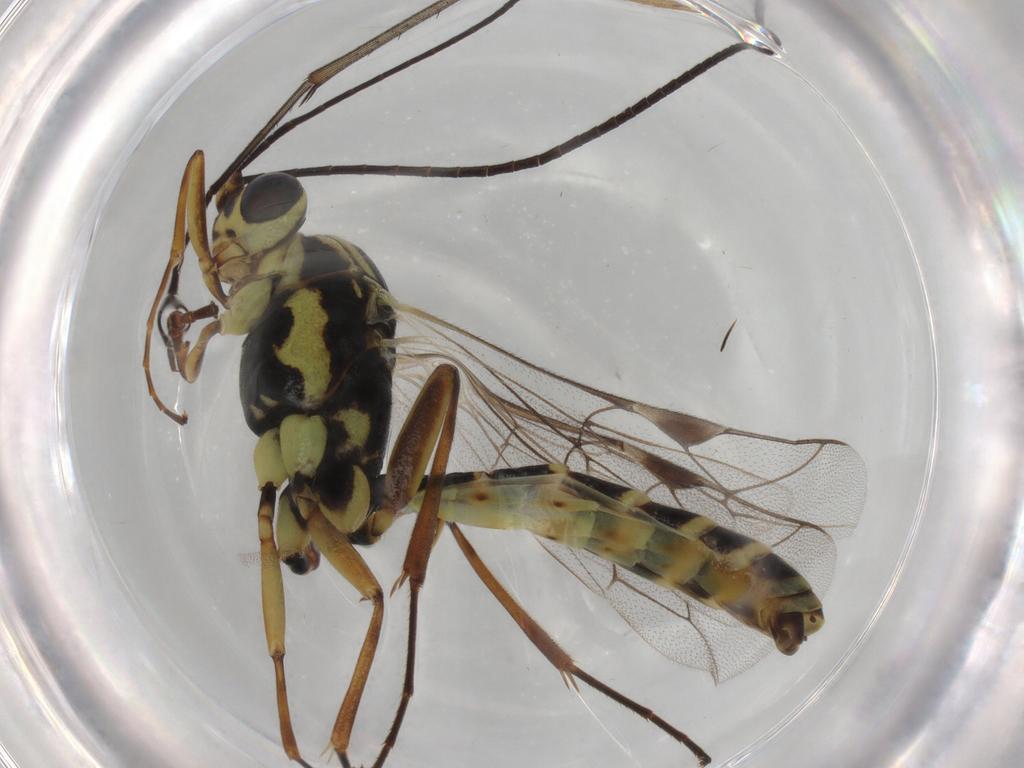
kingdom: Animalia
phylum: Arthropoda
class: Insecta
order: Hymenoptera
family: Ichneumonidae
